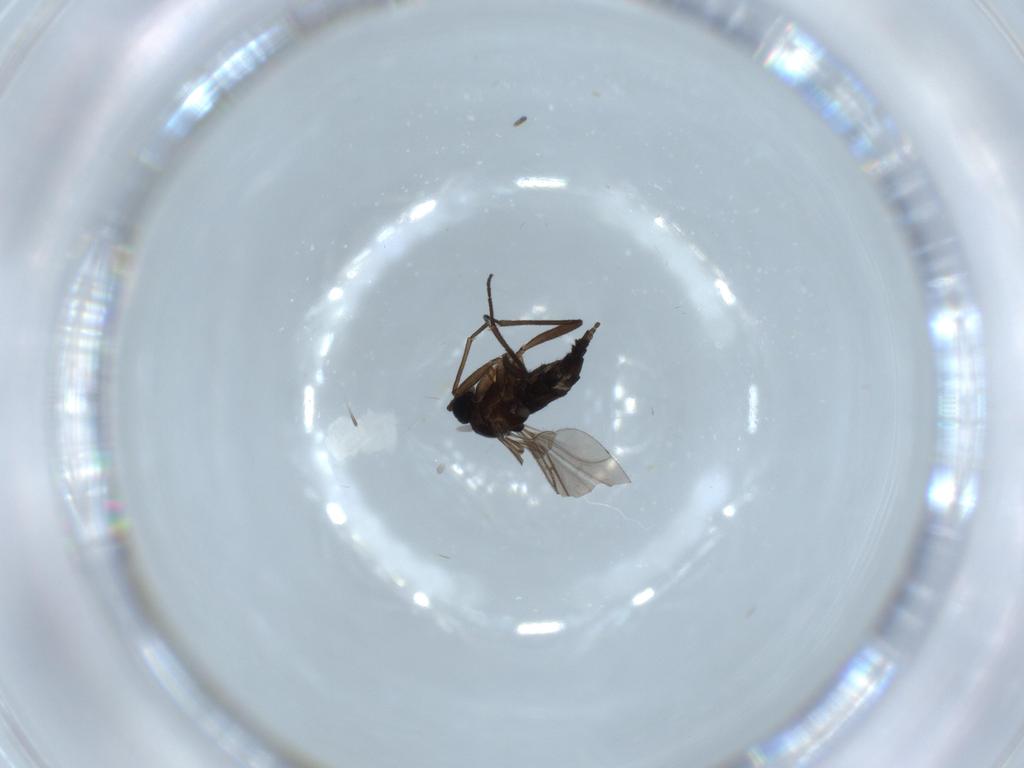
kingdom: Animalia
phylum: Arthropoda
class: Insecta
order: Diptera
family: Sciaridae
